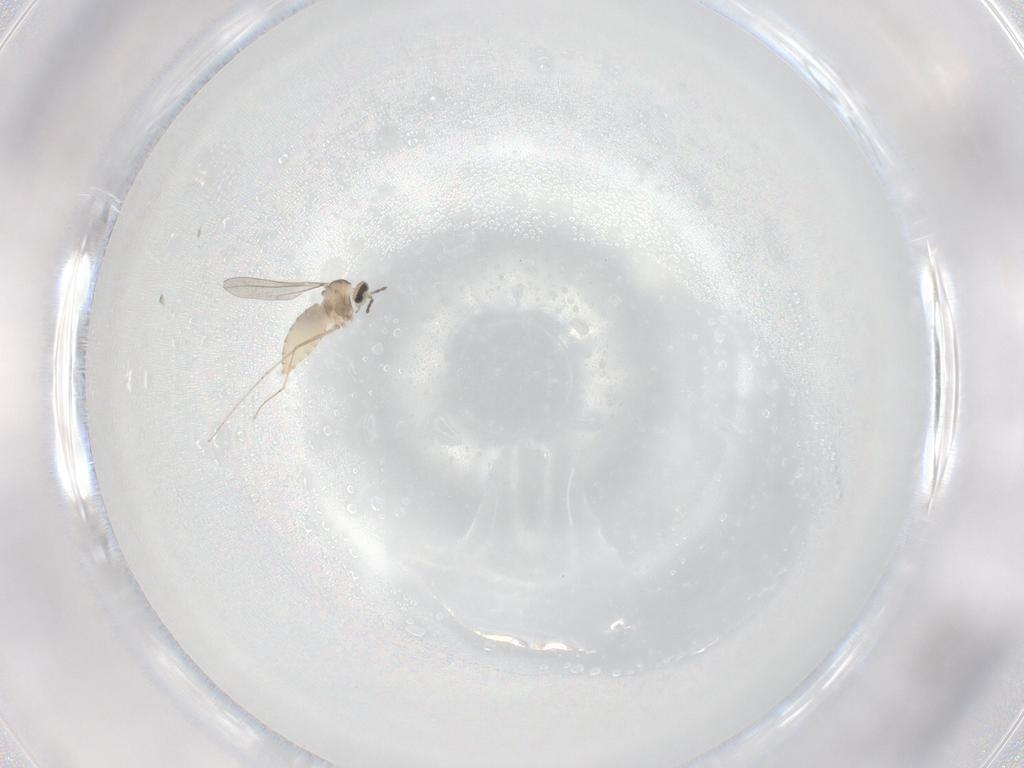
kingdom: Animalia
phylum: Arthropoda
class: Insecta
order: Diptera
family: Cecidomyiidae
